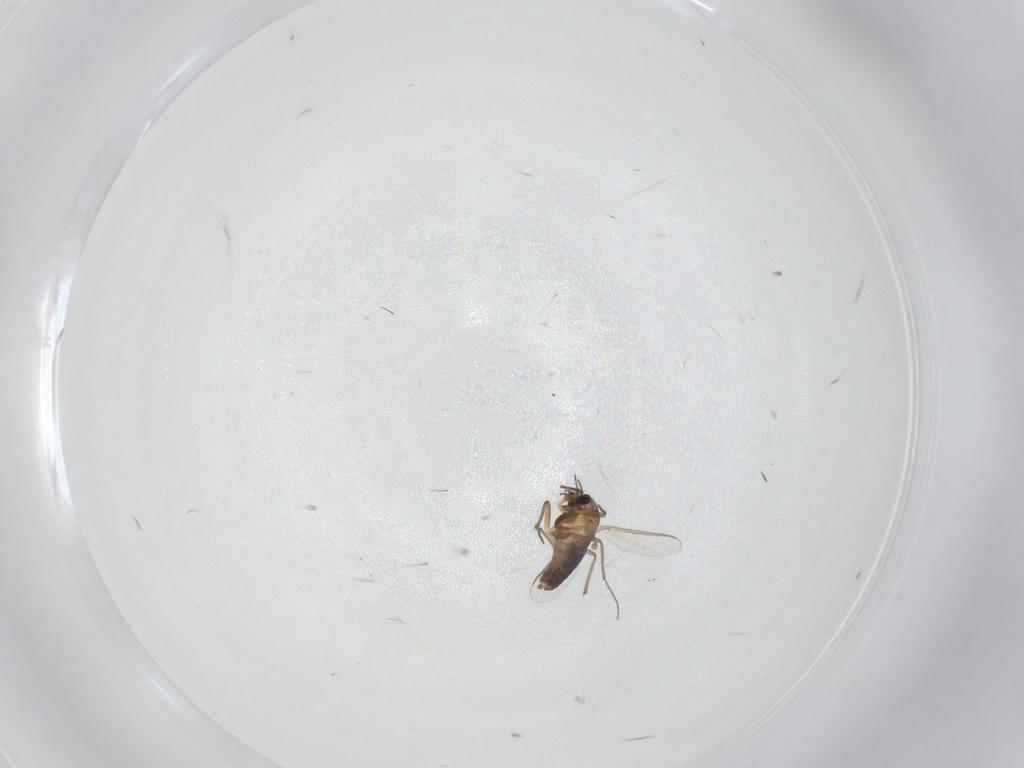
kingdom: Animalia
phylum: Arthropoda
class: Insecta
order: Diptera
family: Chironomidae
